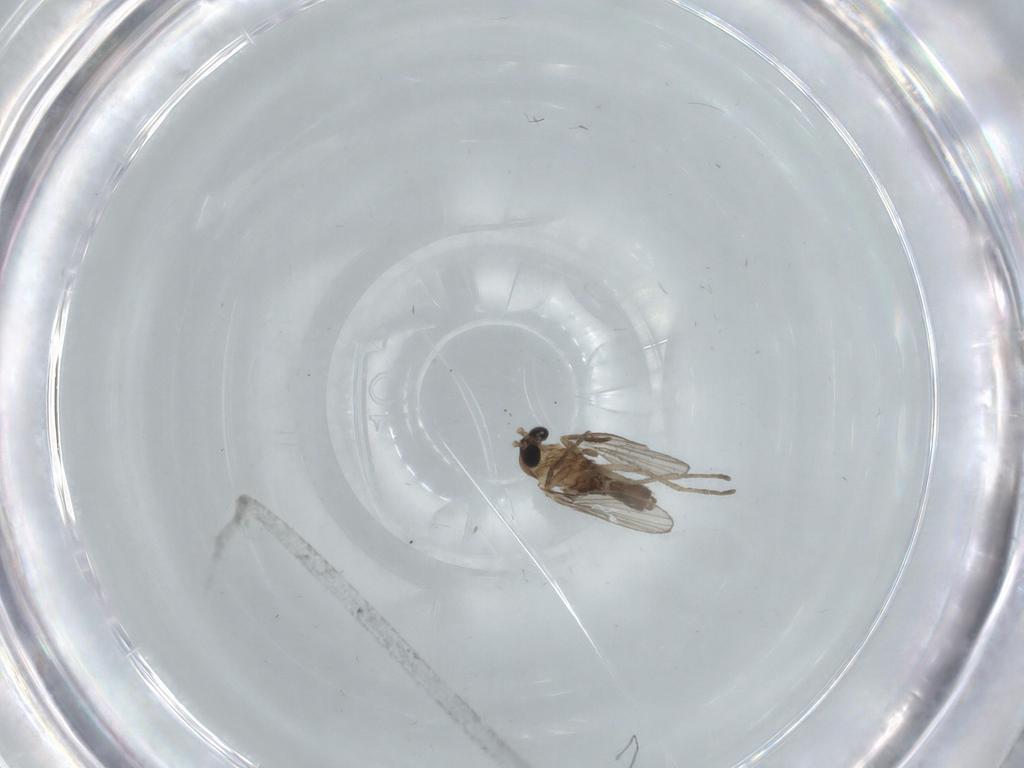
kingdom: Animalia
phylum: Arthropoda
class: Insecta
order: Diptera
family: Psychodidae
